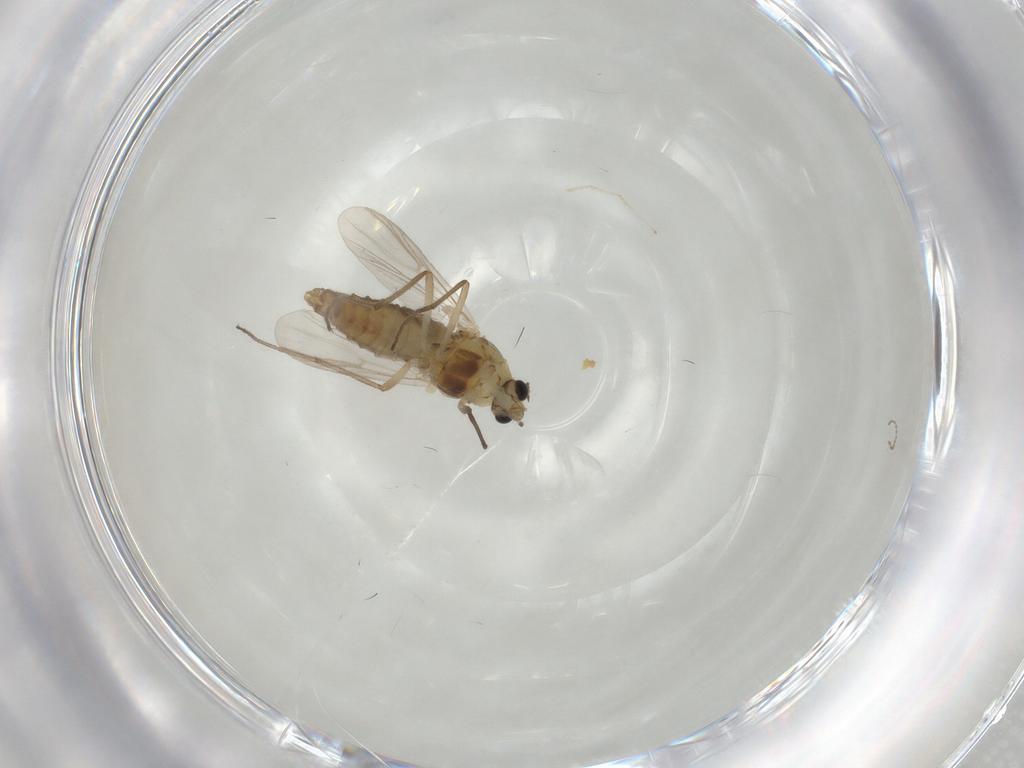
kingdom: Animalia
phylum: Arthropoda
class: Insecta
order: Diptera
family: Chironomidae
